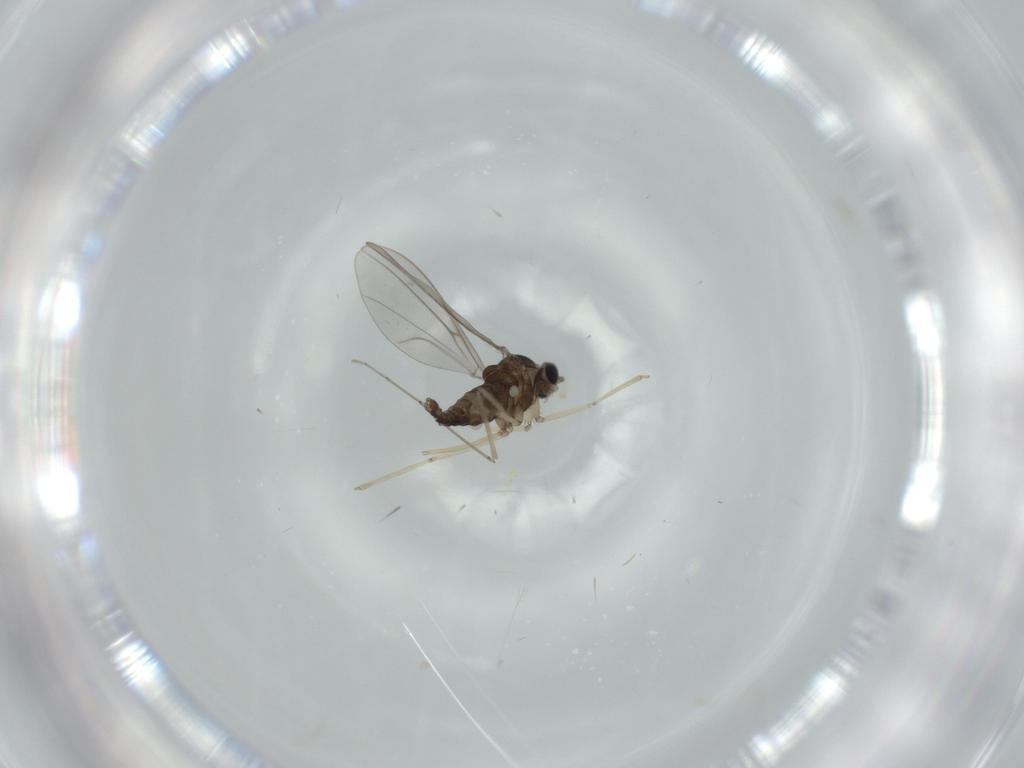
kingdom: Animalia
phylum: Arthropoda
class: Insecta
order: Diptera
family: Cecidomyiidae
